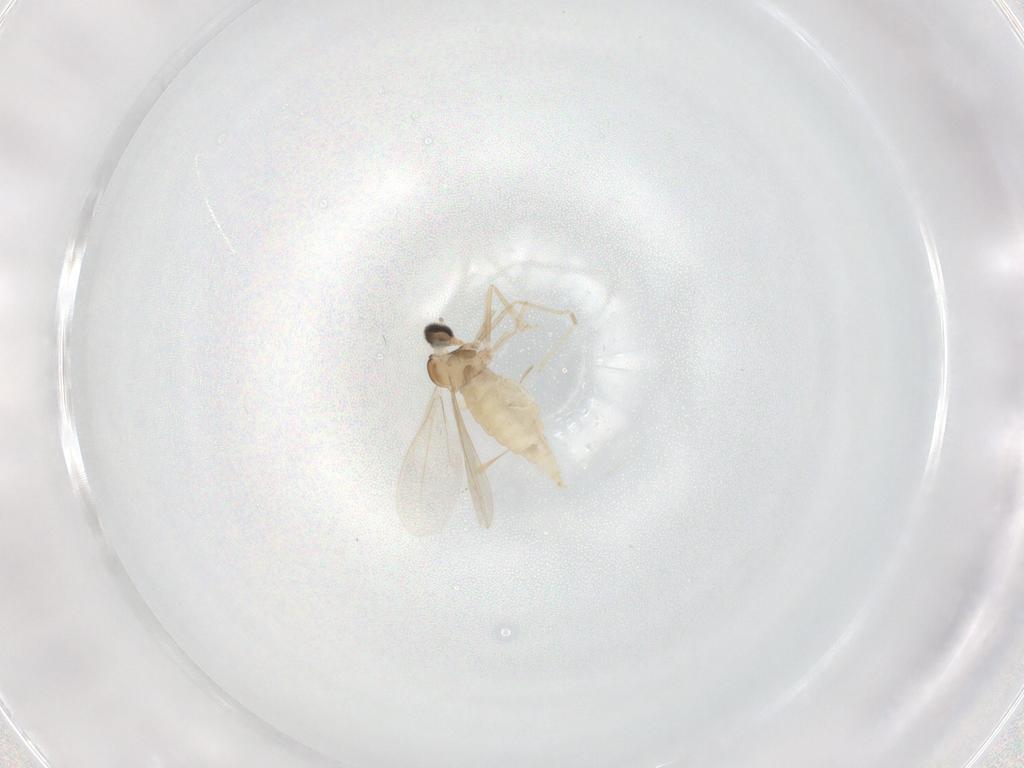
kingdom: Animalia
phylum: Arthropoda
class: Insecta
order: Diptera
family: Cecidomyiidae
